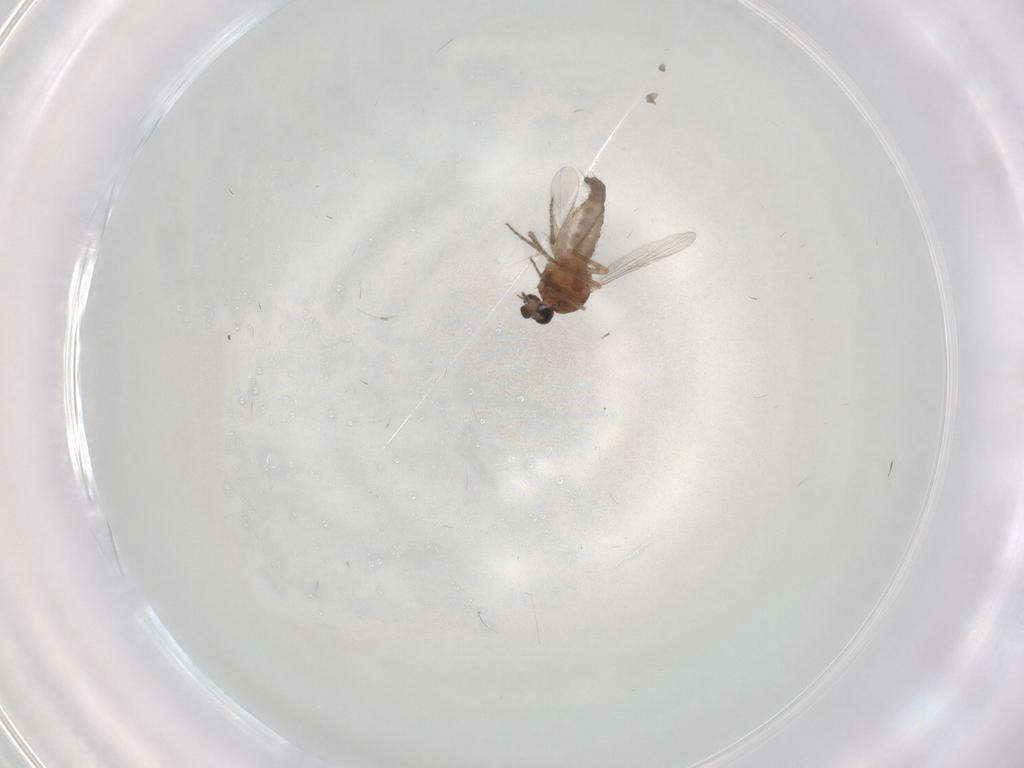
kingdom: Animalia
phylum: Arthropoda
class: Insecta
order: Diptera
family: Ceratopogonidae
